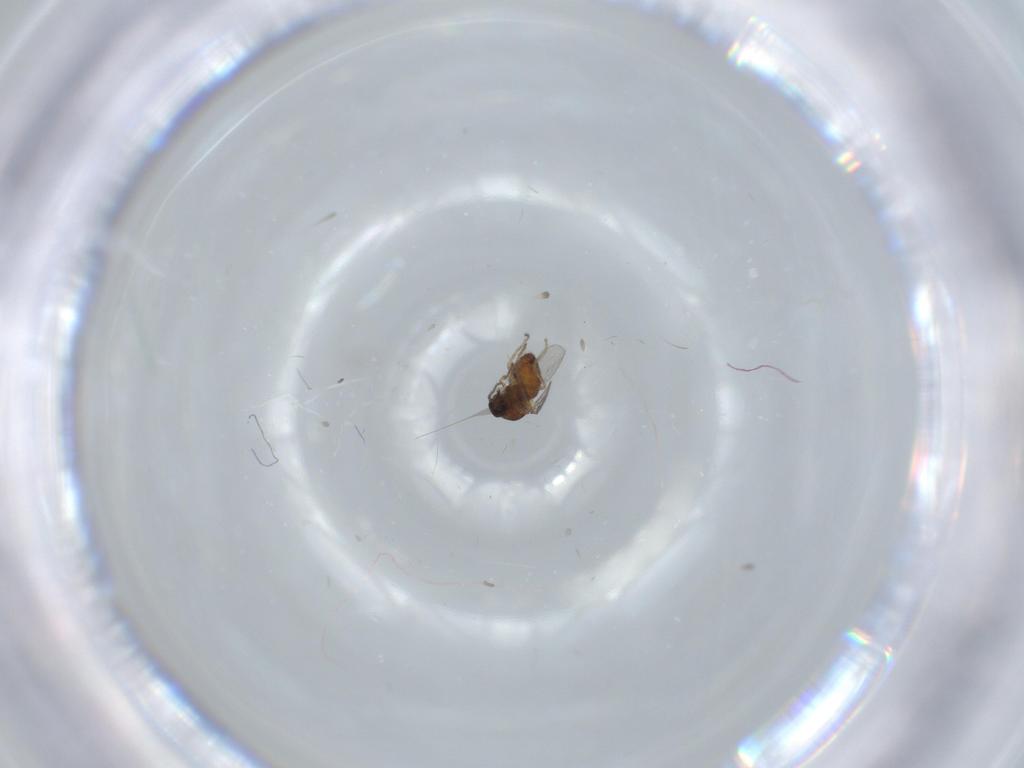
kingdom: Animalia
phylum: Arthropoda
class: Insecta
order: Diptera
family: Ceratopogonidae
